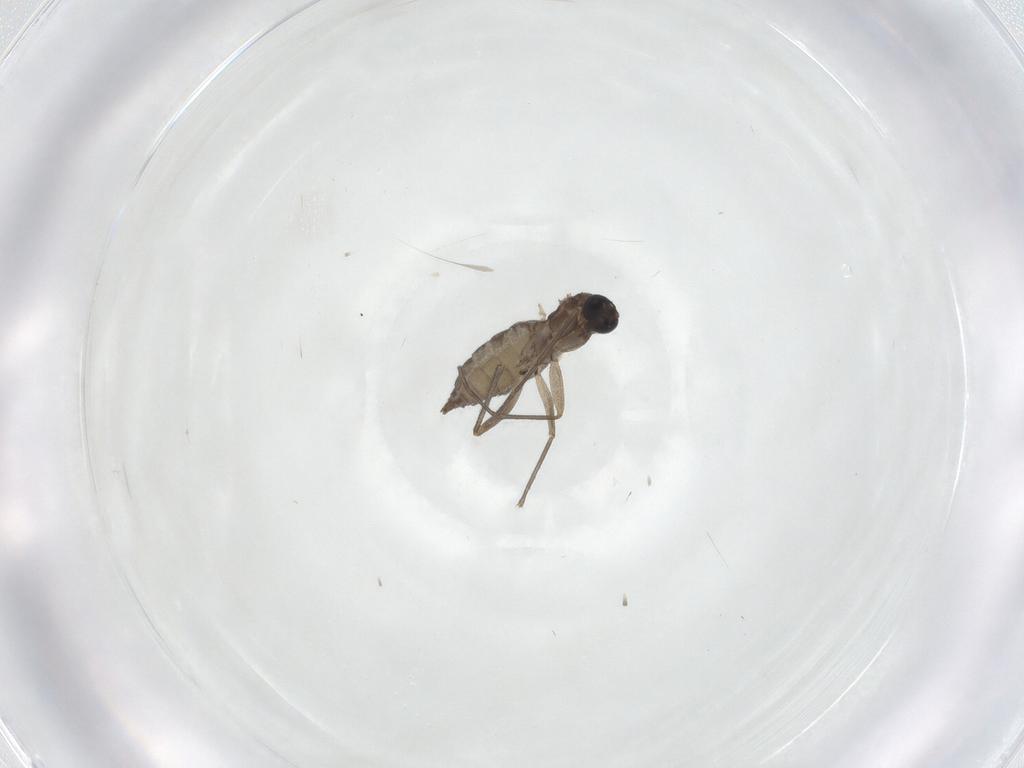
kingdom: Animalia
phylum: Arthropoda
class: Insecta
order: Diptera
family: Sciaridae
